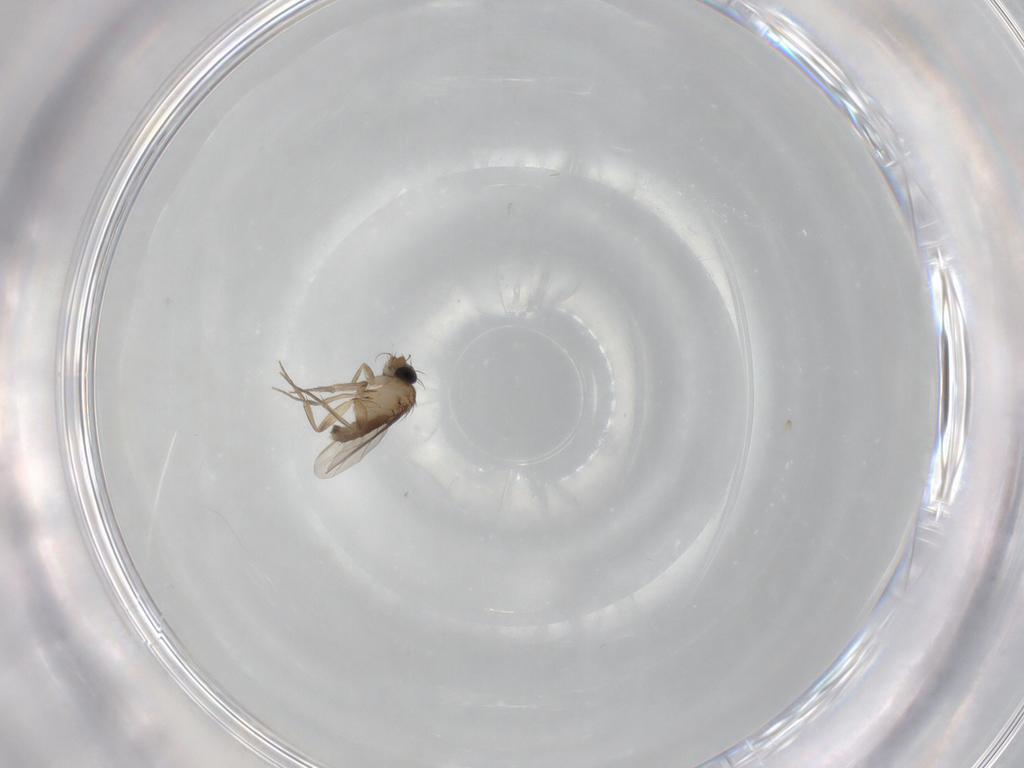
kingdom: Animalia
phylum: Arthropoda
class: Insecta
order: Diptera
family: Phoridae
